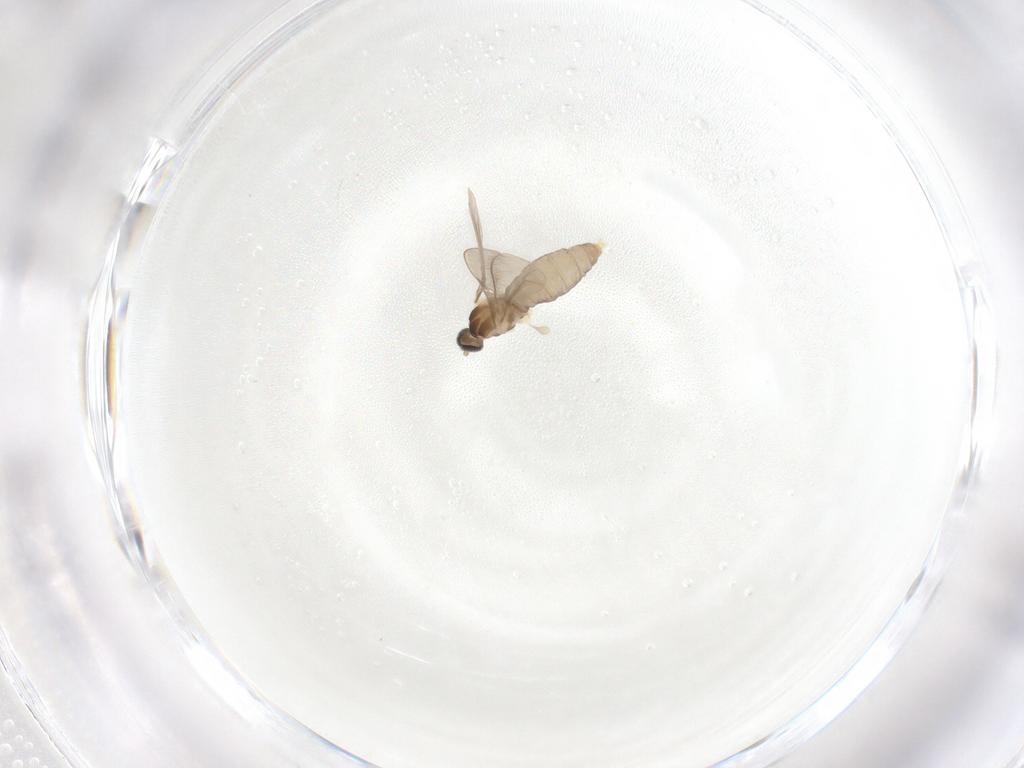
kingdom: Animalia
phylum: Arthropoda
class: Insecta
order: Diptera
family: Cecidomyiidae
